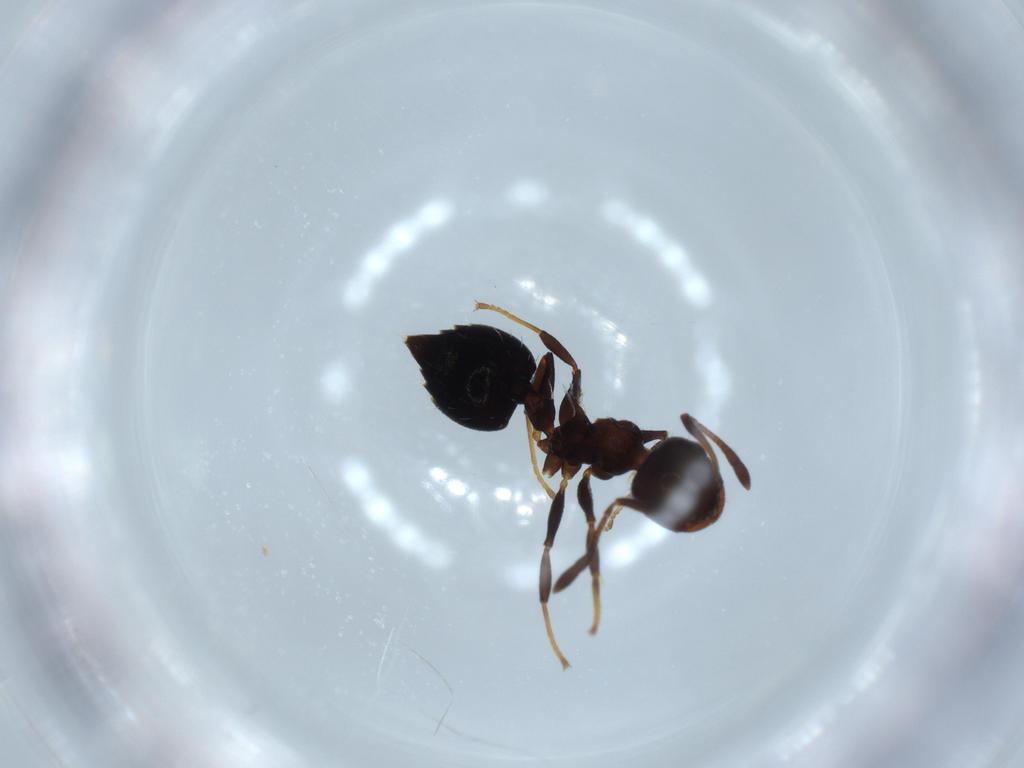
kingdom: Animalia
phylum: Arthropoda
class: Insecta
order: Hymenoptera
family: Formicidae
